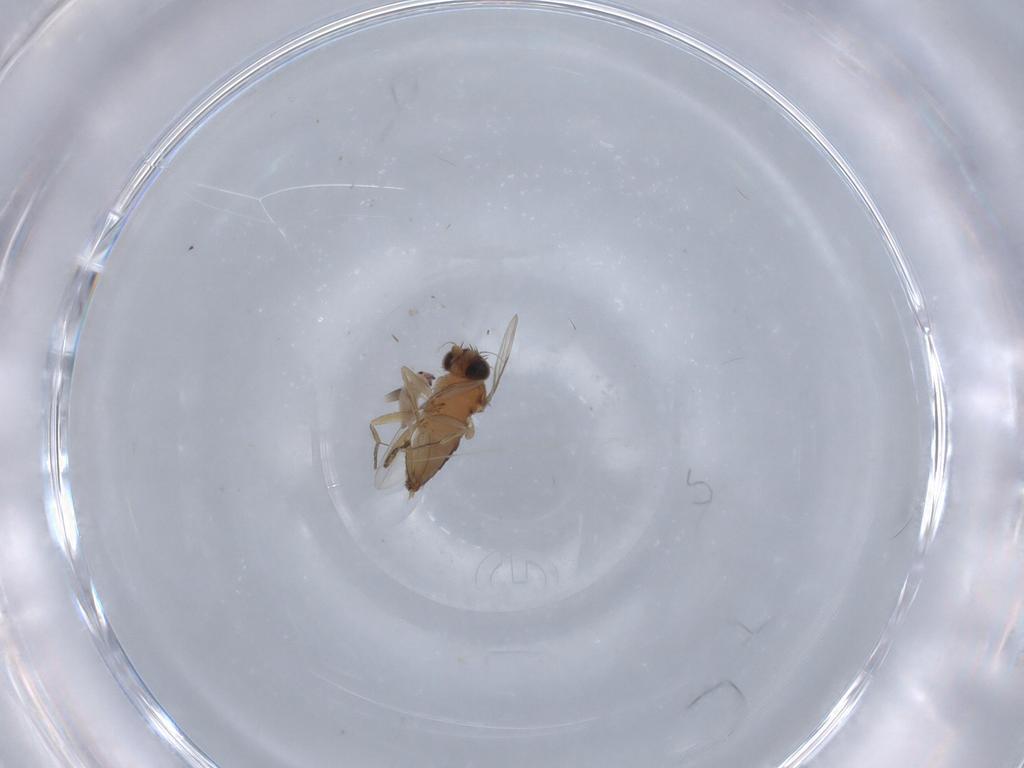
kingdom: Animalia
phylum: Arthropoda
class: Insecta
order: Diptera
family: Phoridae
